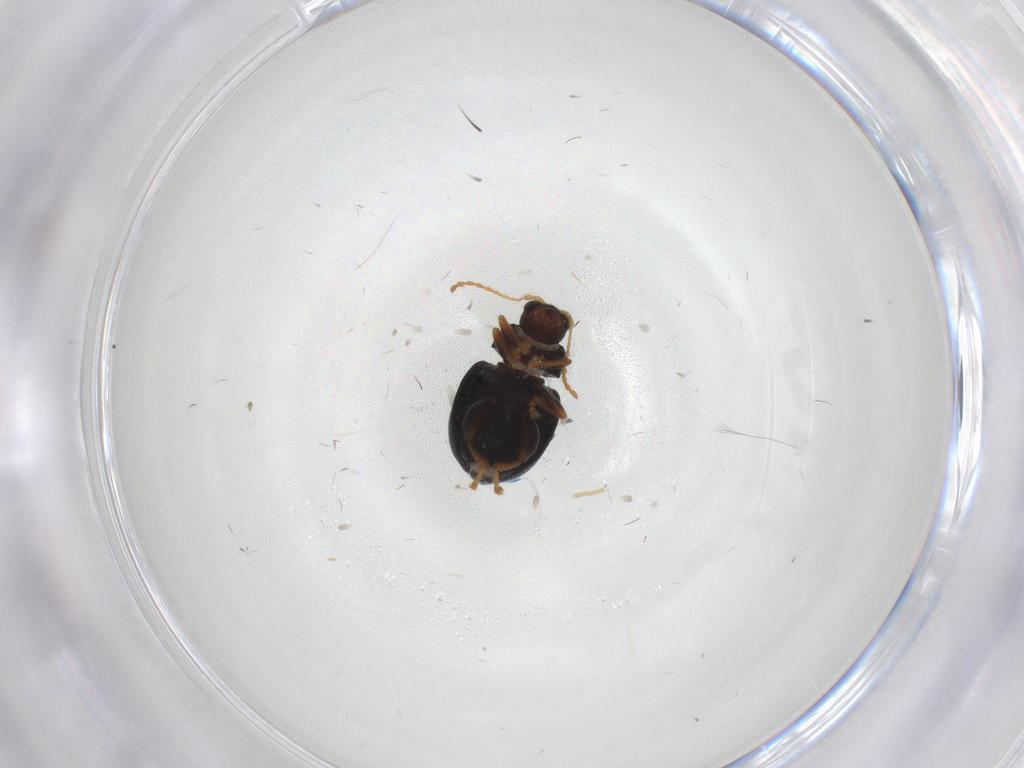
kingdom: Animalia
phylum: Arthropoda
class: Insecta
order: Coleoptera
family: Chrysomelidae
